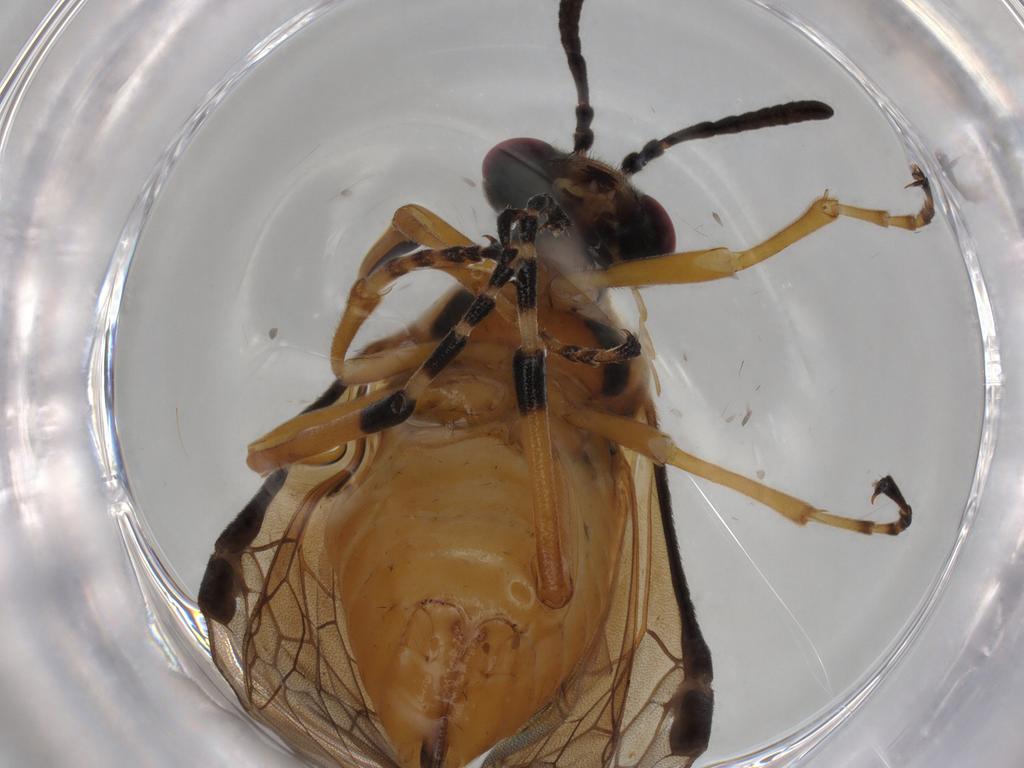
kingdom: Animalia
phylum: Arthropoda
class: Insecta
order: Hymenoptera
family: Ichneumonidae
